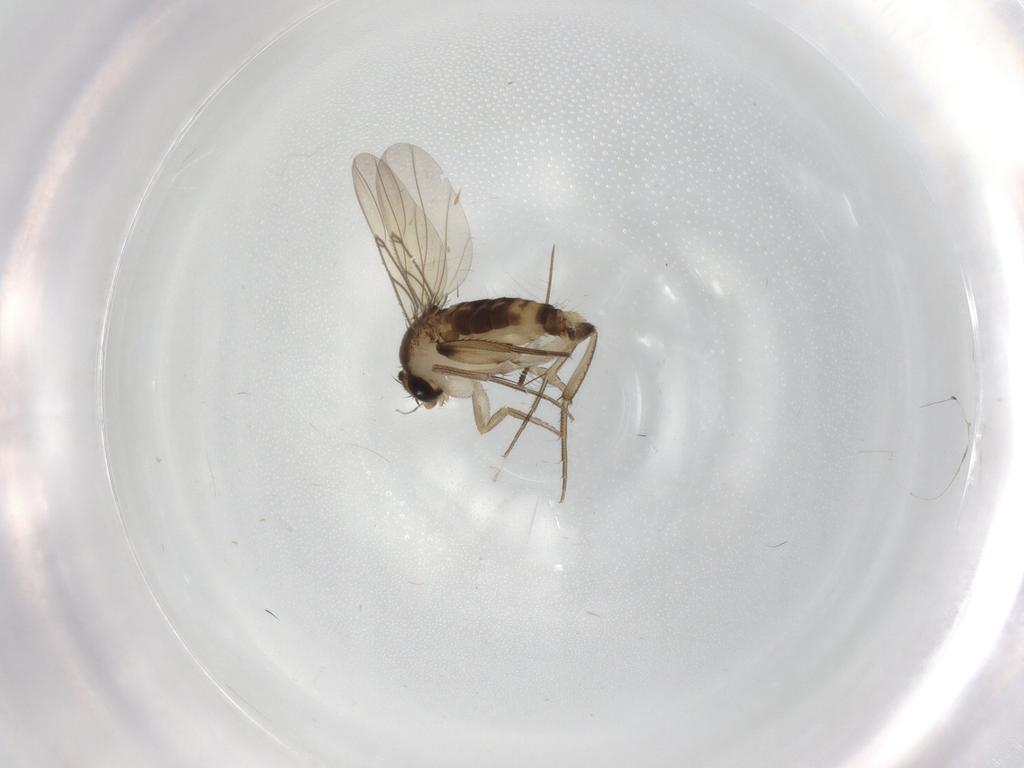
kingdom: Animalia
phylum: Arthropoda
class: Insecta
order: Diptera
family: Phoridae
